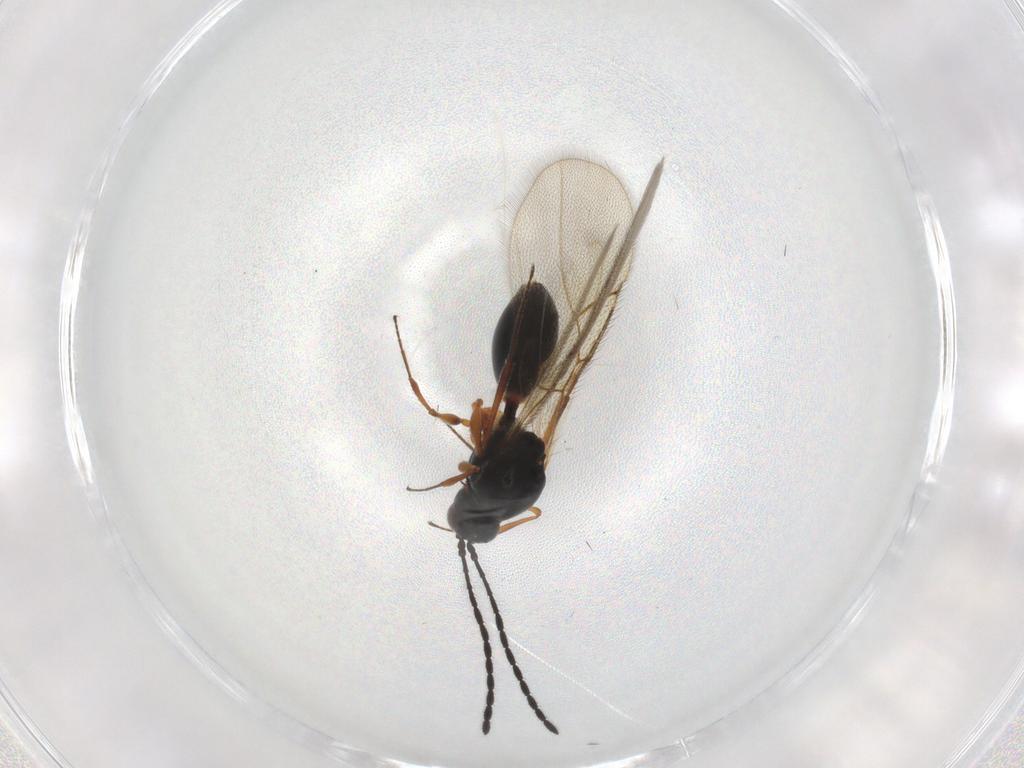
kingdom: Animalia
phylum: Arthropoda
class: Insecta
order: Hymenoptera
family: Figitidae
